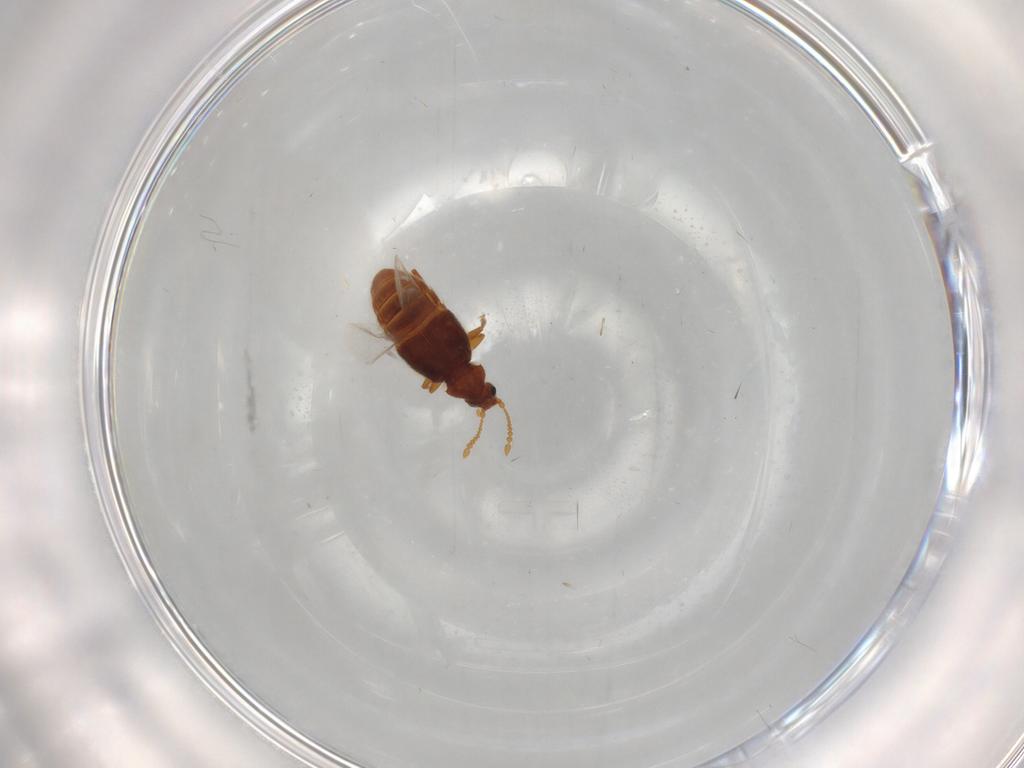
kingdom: Animalia
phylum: Arthropoda
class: Insecta
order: Coleoptera
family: Staphylinidae
